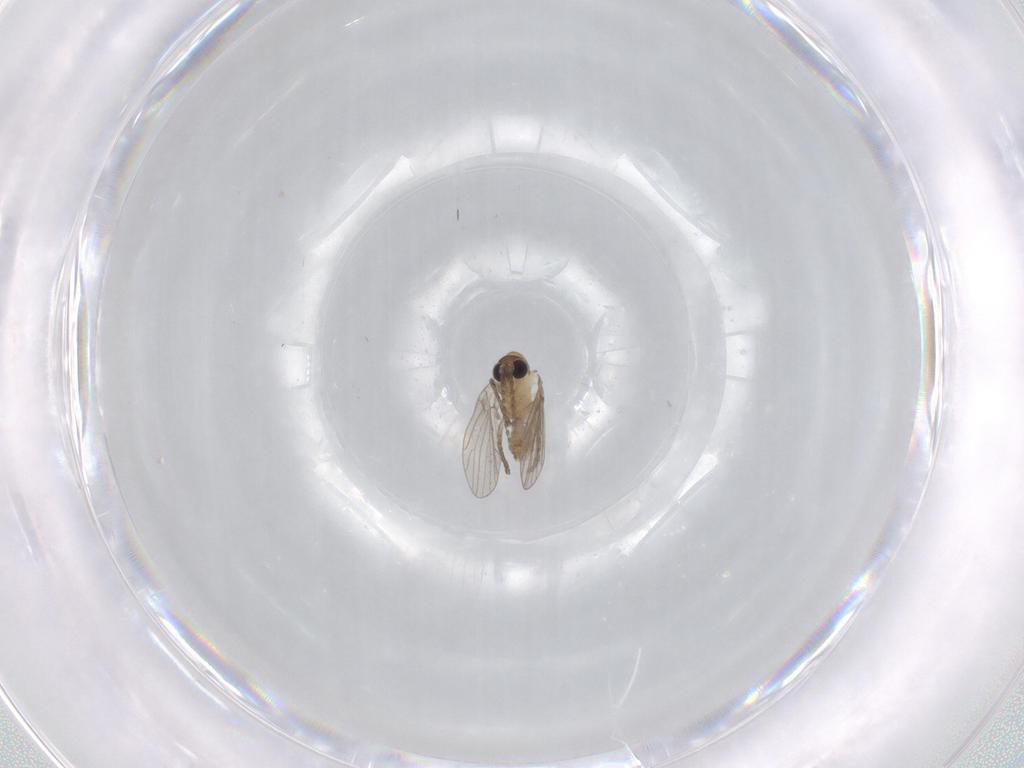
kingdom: Animalia
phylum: Arthropoda
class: Insecta
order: Diptera
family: Cecidomyiidae
